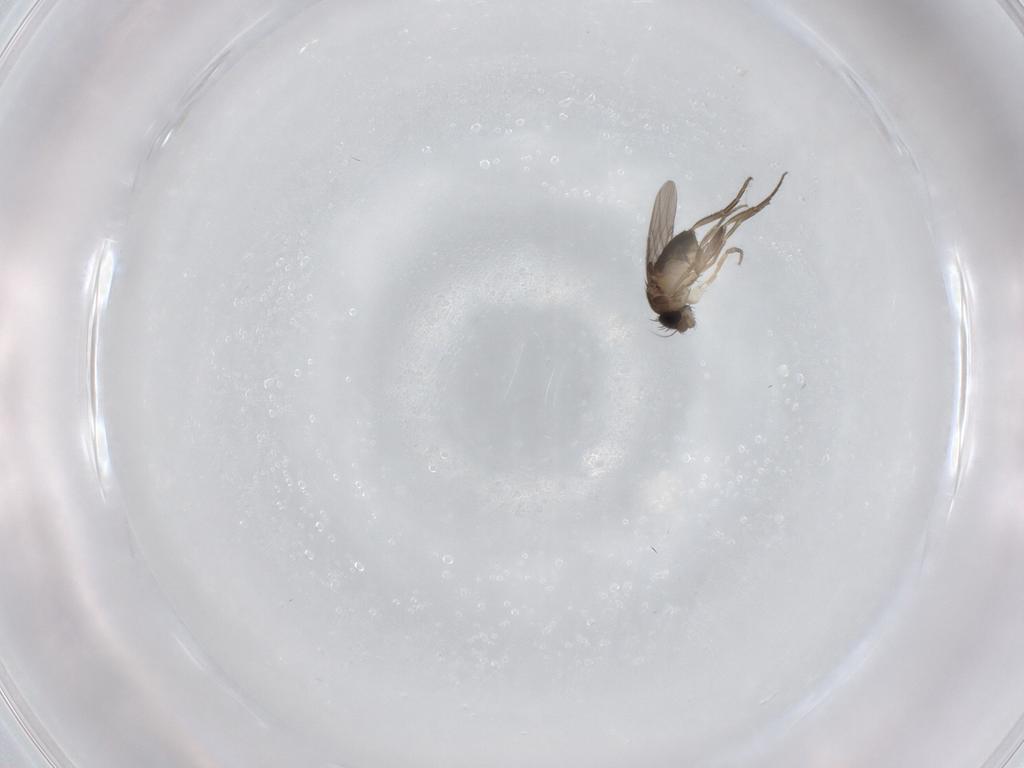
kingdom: Animalia
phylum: Arthropoda
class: Insecta
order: Diptera
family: Phoridae
